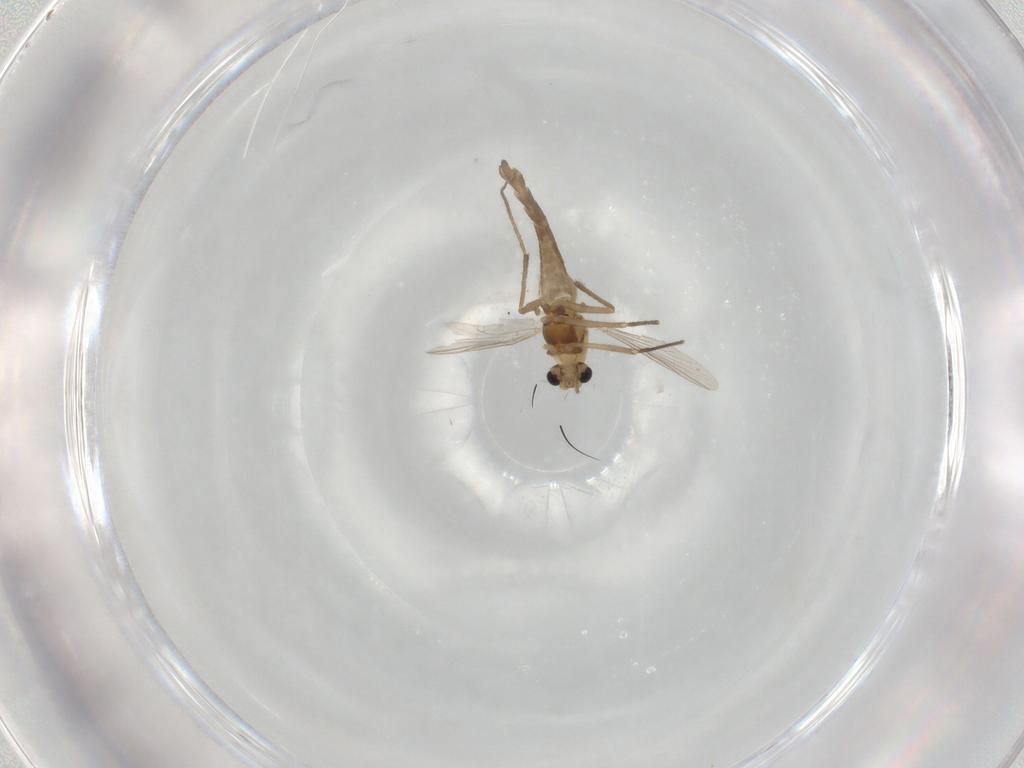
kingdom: Animalia
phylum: Arthropoda
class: Insecta
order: Diptera
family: Chironomidae
